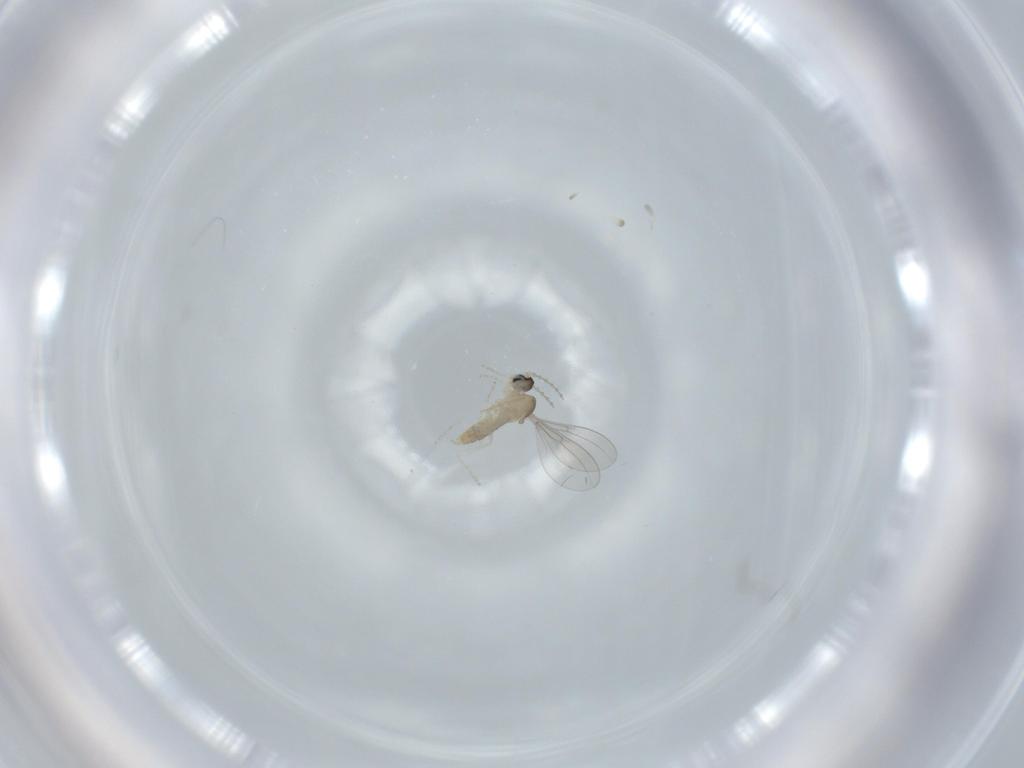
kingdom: Animalia
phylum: Arthropoda
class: Insecta
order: Diptera
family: Cecidomyiidae
